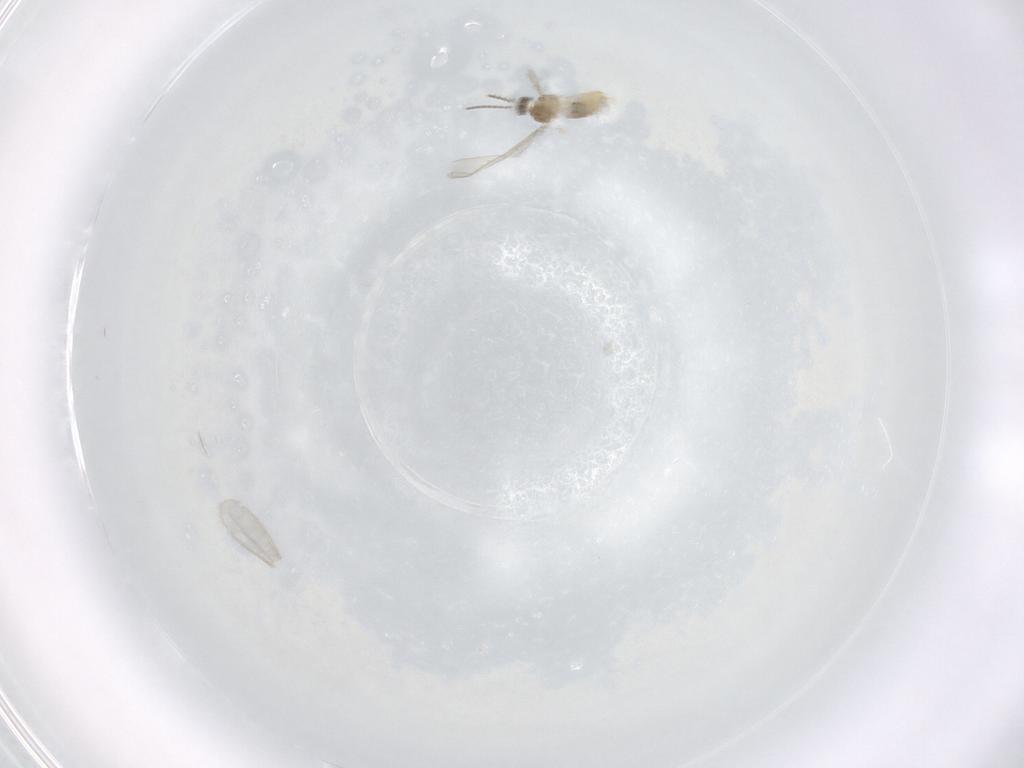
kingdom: Animalia
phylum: Arthropoda
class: Insecta
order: Diptera
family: Cecidomyiidae
